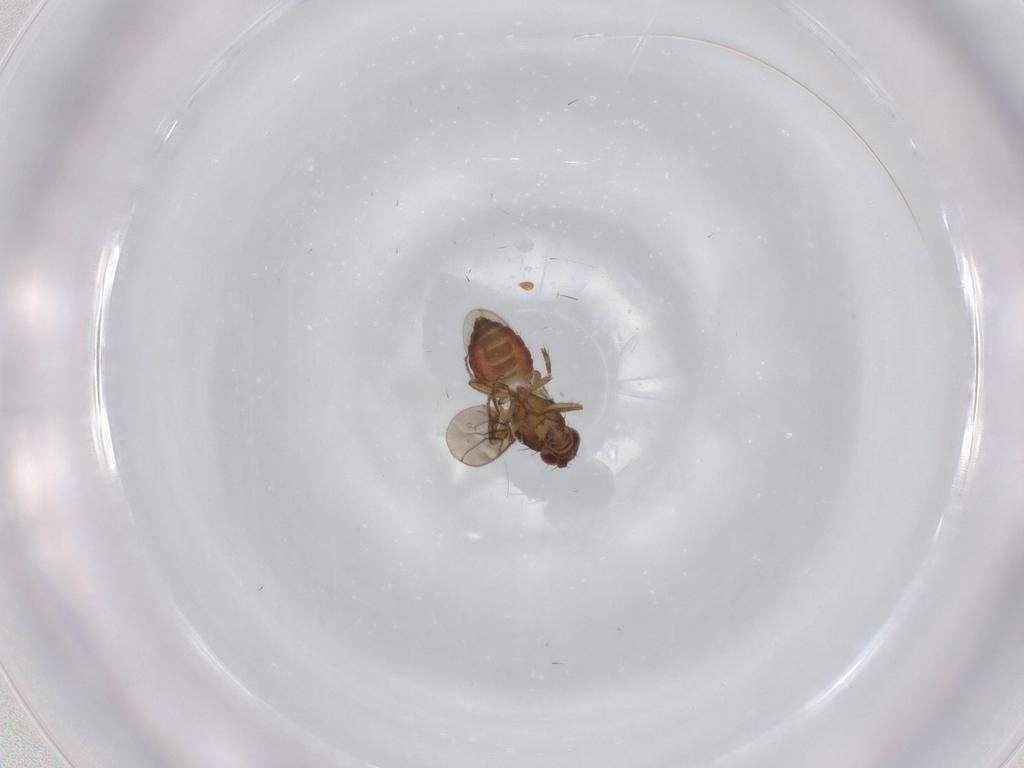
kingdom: Animalia
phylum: Arthropoda
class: Insecta
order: Diptera
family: Sphaeroceridae
